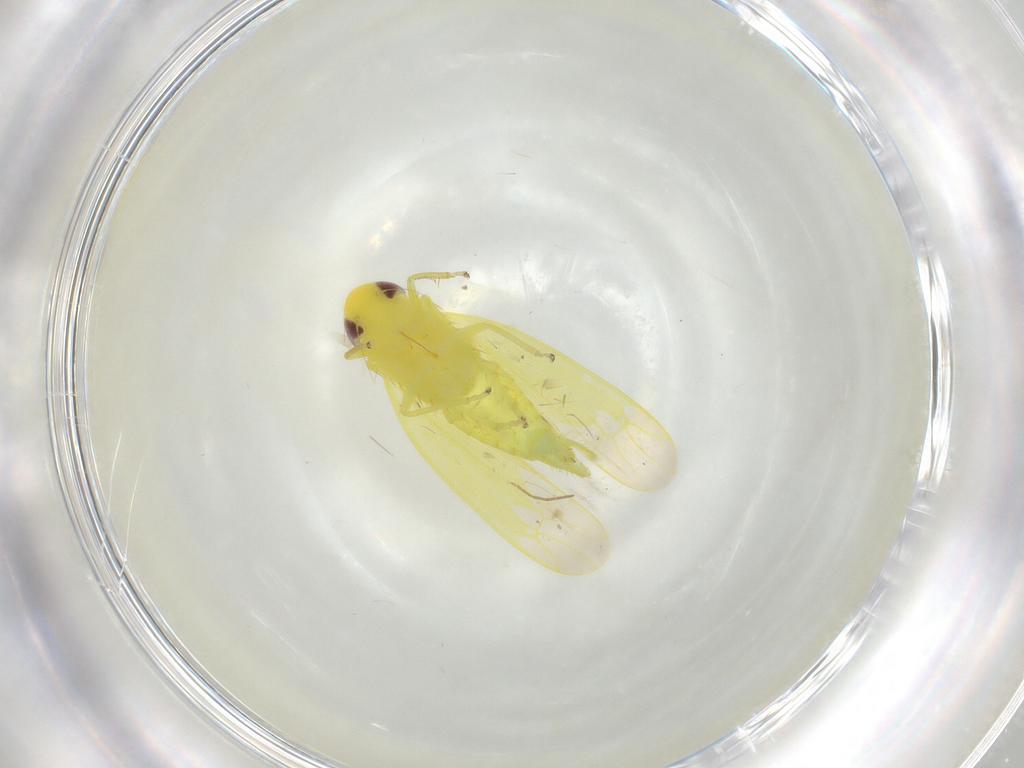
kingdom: Animalia
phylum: Arthropoda
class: Insecta
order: Hemiptera
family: Cicadellidae
